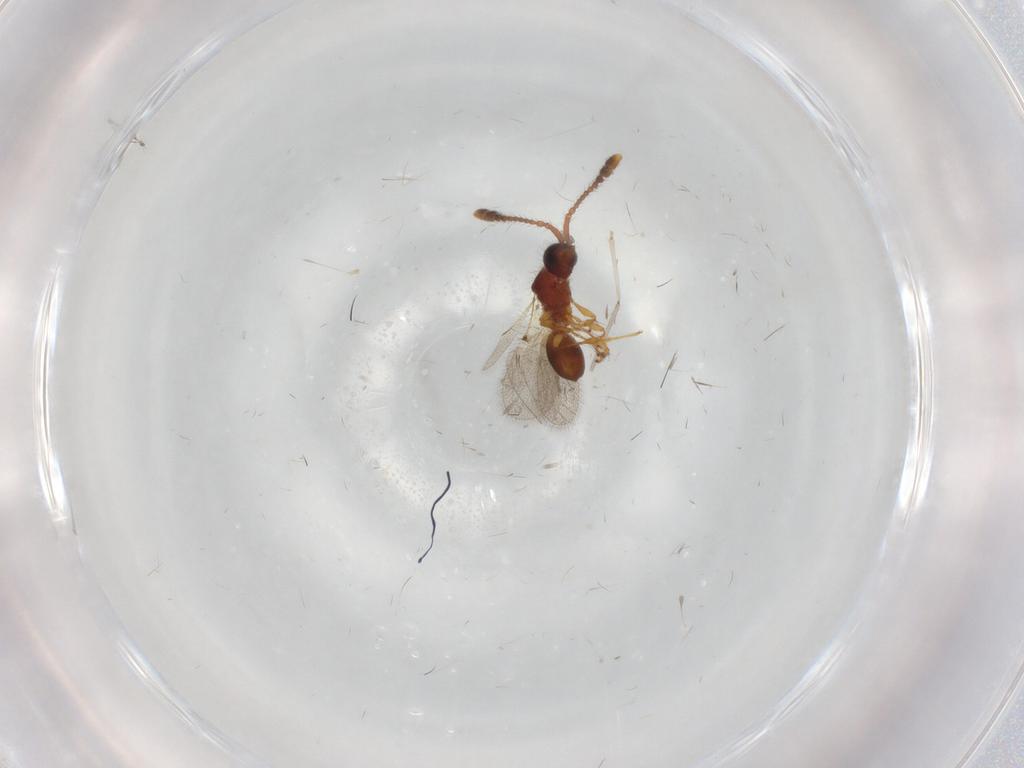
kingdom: Animalia
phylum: Arthropoda
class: Insecta
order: Hymenoptera
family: Diapriidae
